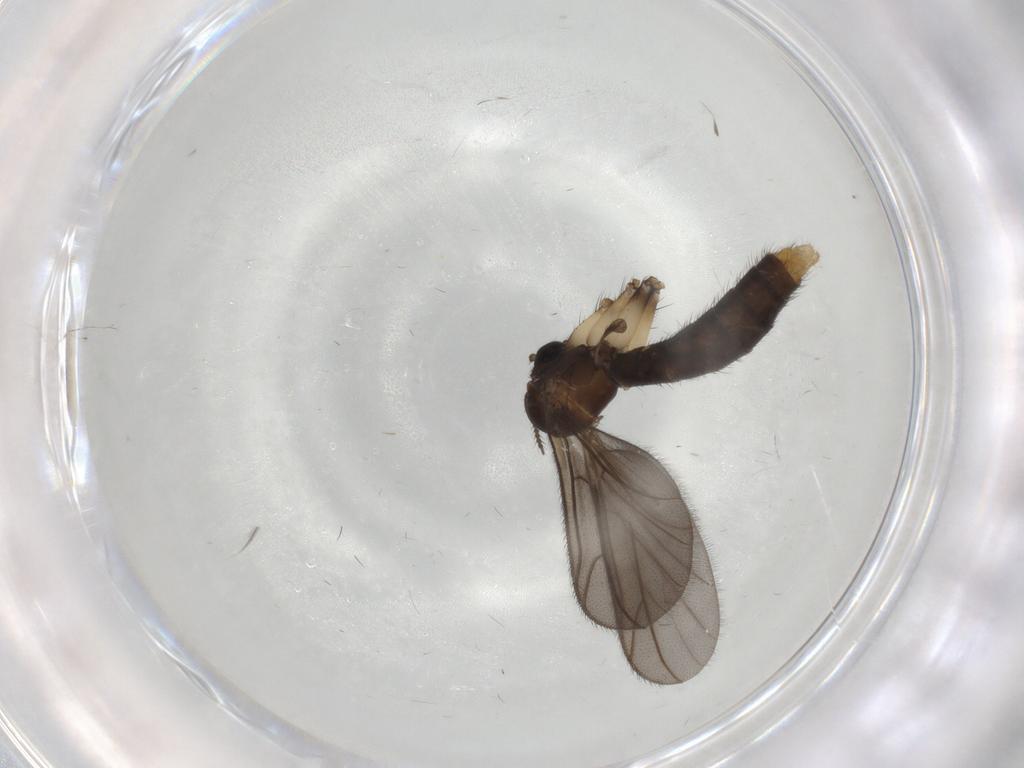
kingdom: Animalia
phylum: Arthropoda
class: Insecta
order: Diptera
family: Ditomyiidae
